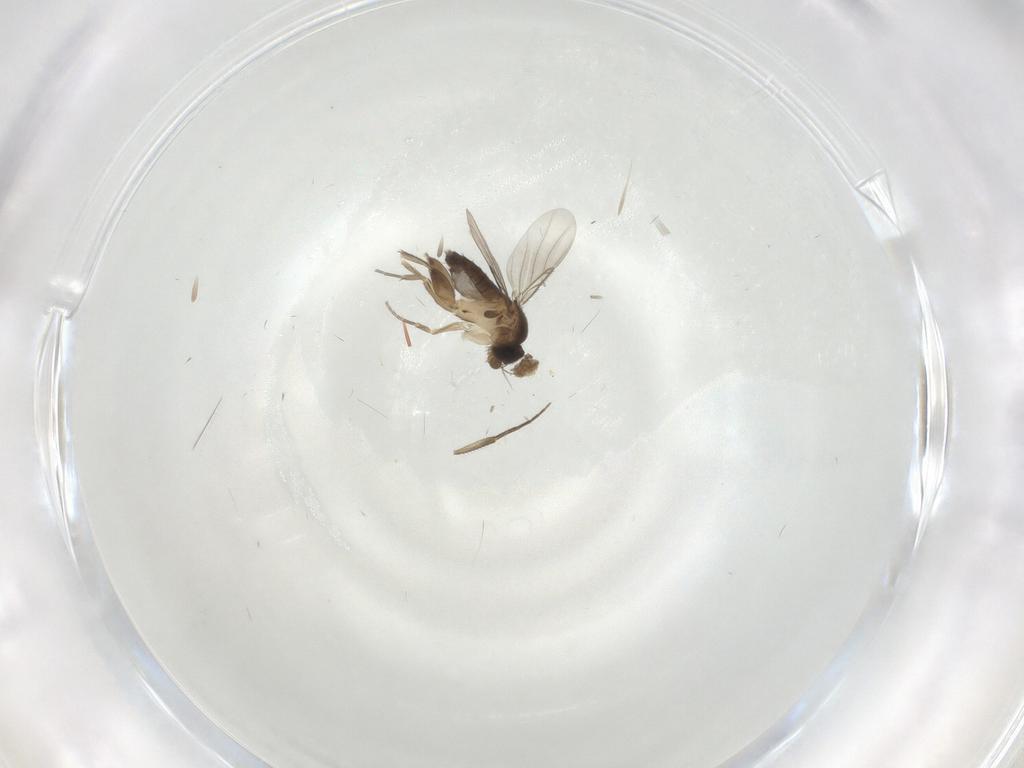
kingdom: Animalia
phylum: Arthropoda
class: Insecta
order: Diptera
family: Phoridae
